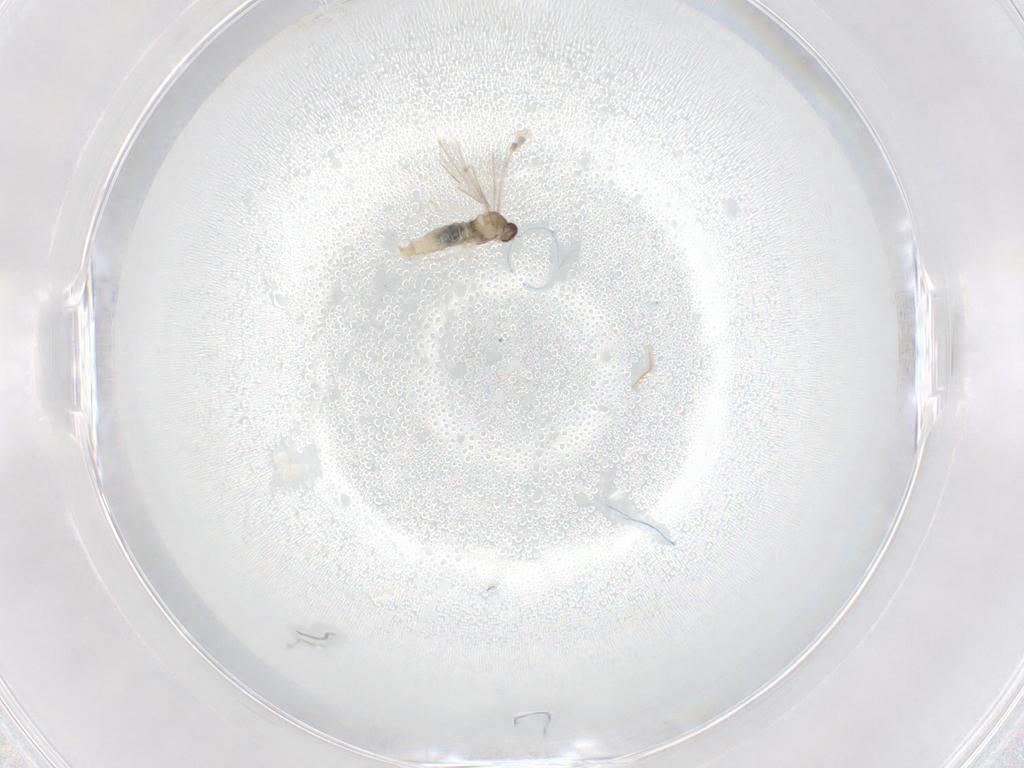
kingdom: Animalia
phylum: Arthropoda
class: Insecta
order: Diptera
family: Cecidomyiidae
